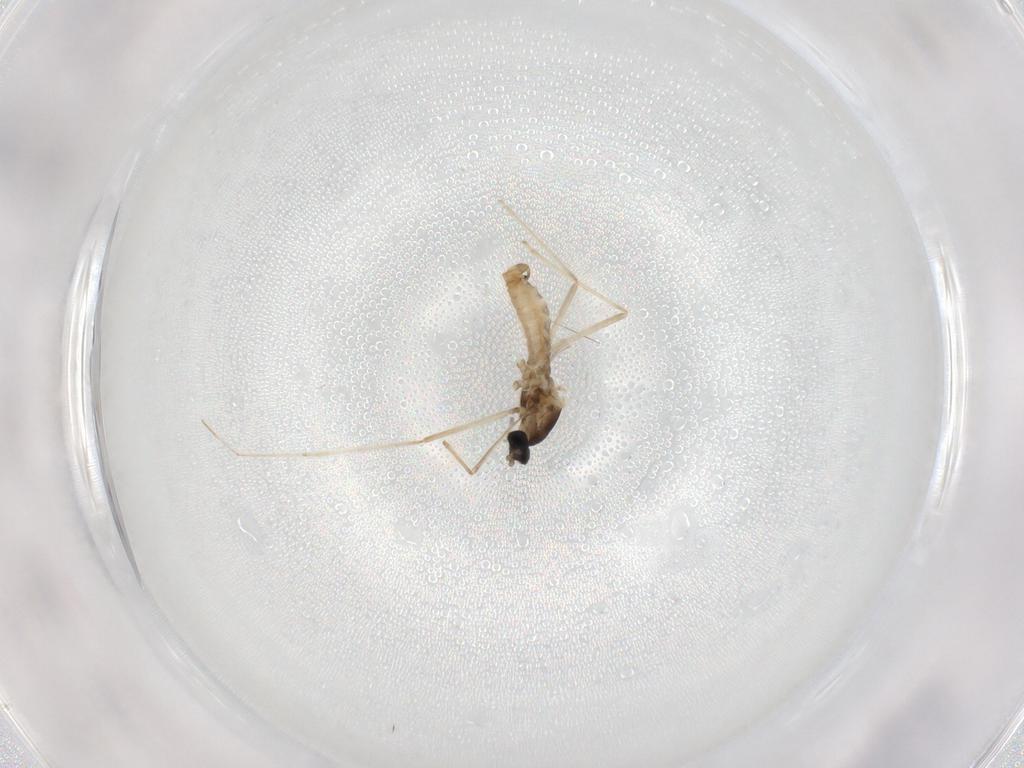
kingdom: Animalia
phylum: Arthropoda
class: Insecta
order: Diptera
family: Cecidomyiidae
